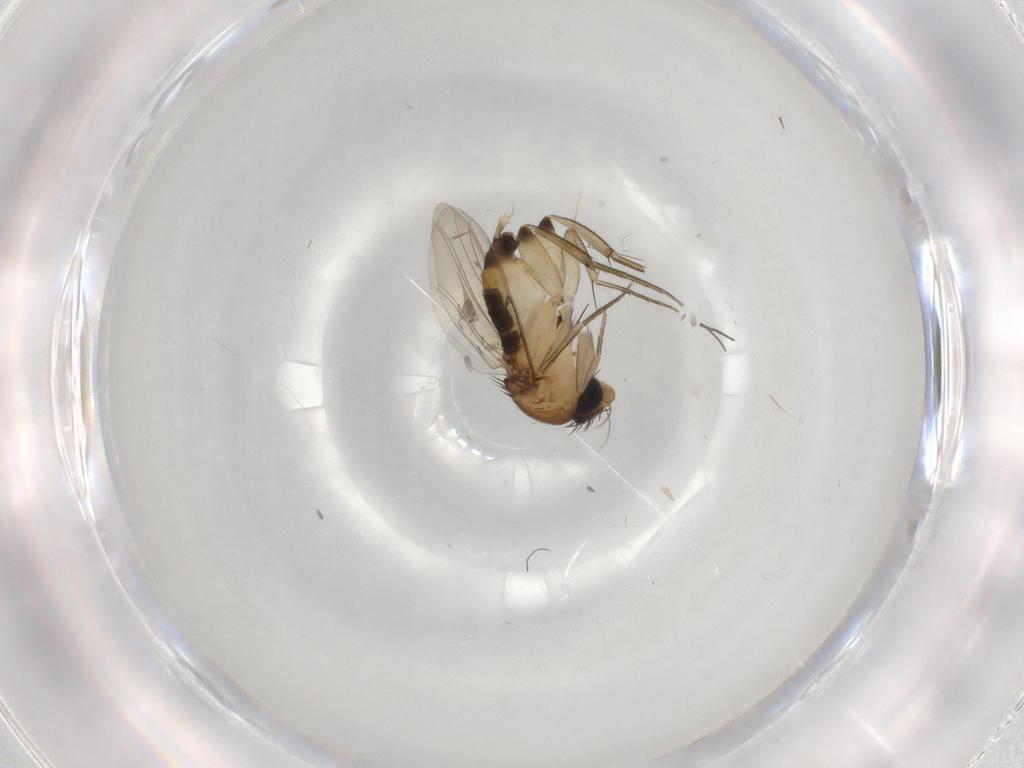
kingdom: Animalia
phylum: Arthropoda
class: Insecta
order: Diptera
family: Phoridae
